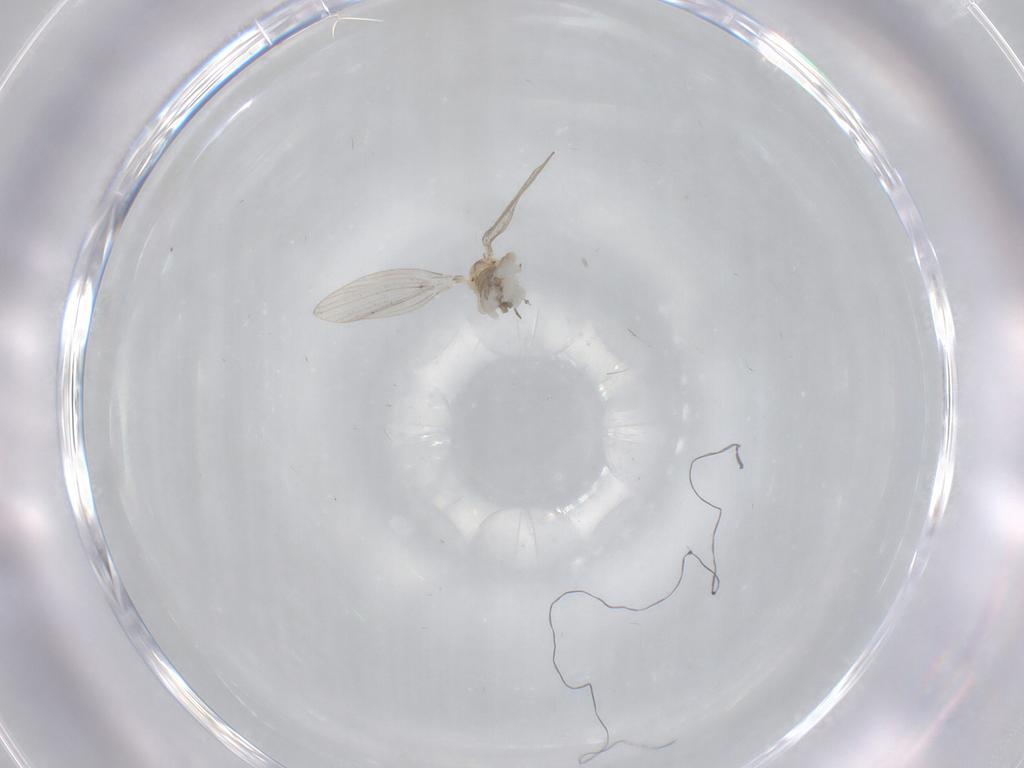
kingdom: Animalia
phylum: Arthropoda
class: Insecta
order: Diptera
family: Psychodidae
